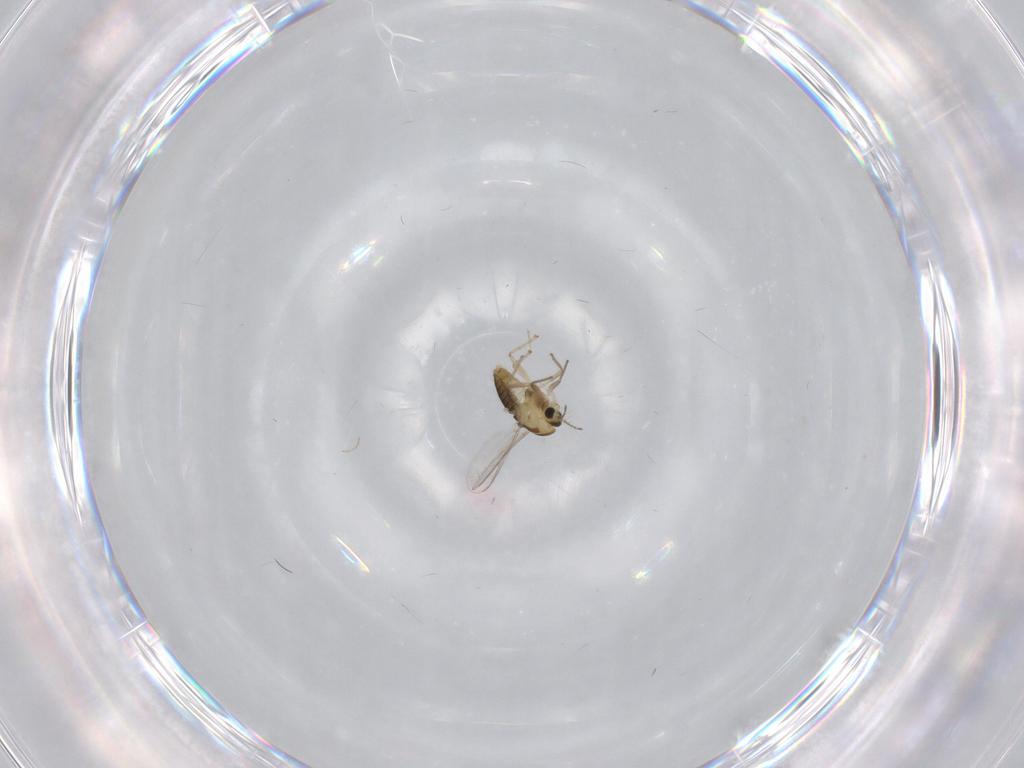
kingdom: Animalia
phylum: Arthropoda
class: Insecta
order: Diptera
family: Chironomidae
